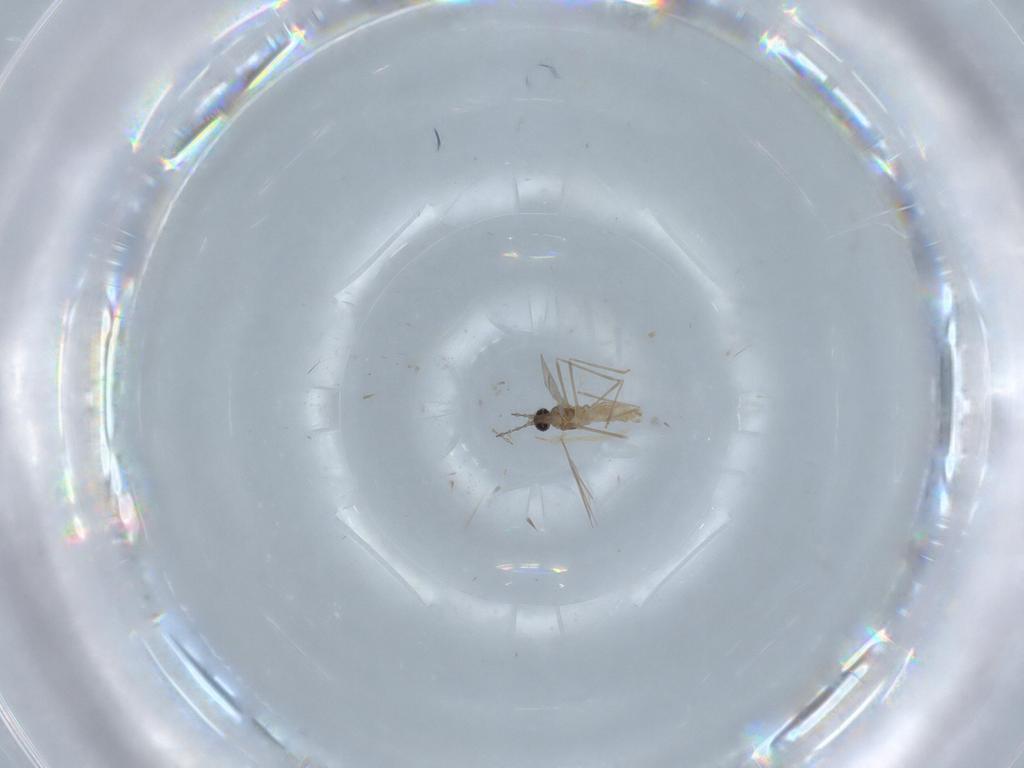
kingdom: Animalia
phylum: Arthropoda
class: Insecta
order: Diptera
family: Cecidomyiidae
